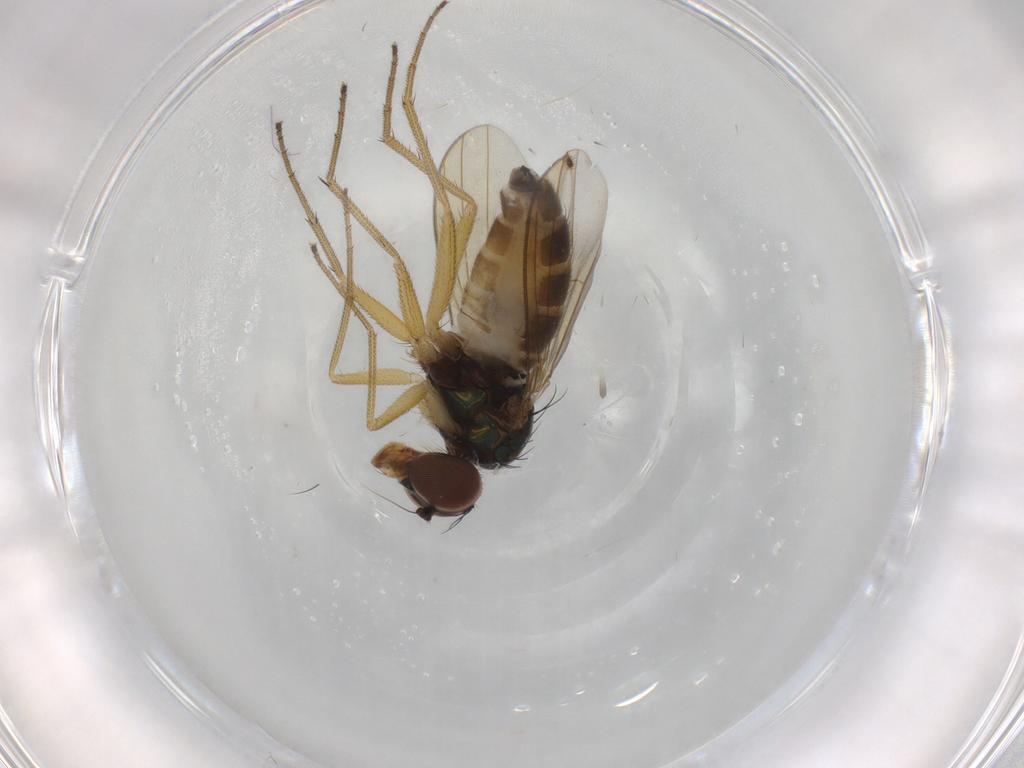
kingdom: Animalia
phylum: Arthropoda
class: Insecta
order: Diptera
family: Dolichopodidae
